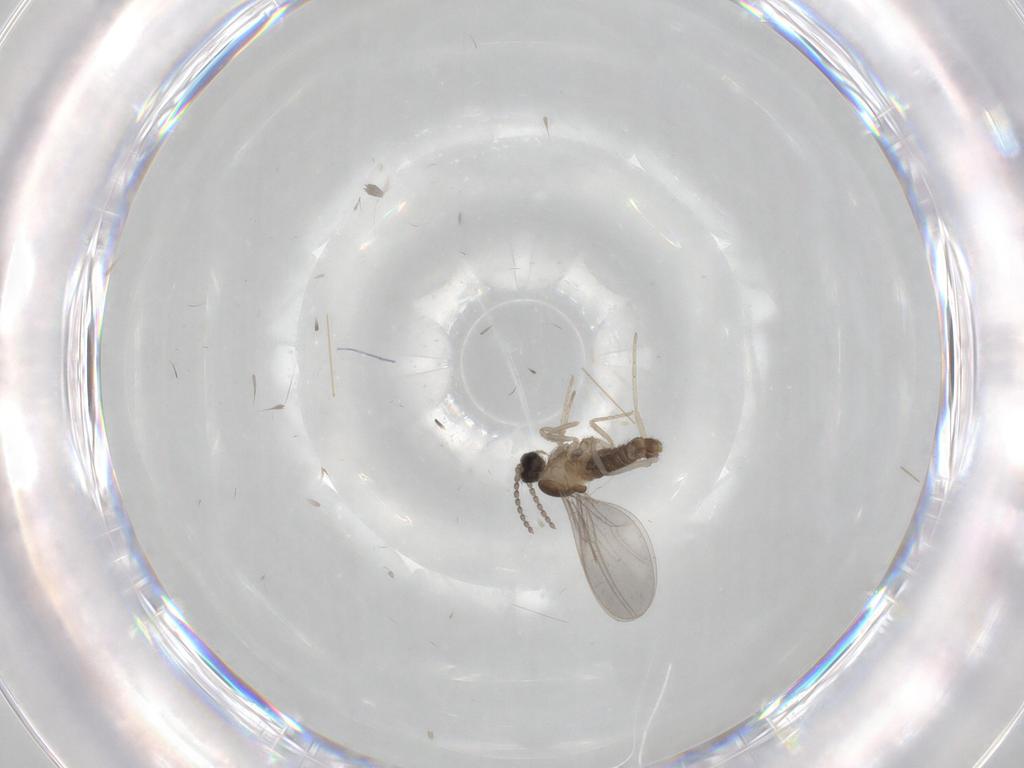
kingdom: Animalia
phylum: Arthropoda
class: Insecta
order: Diptera
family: Cecidomyiidae
